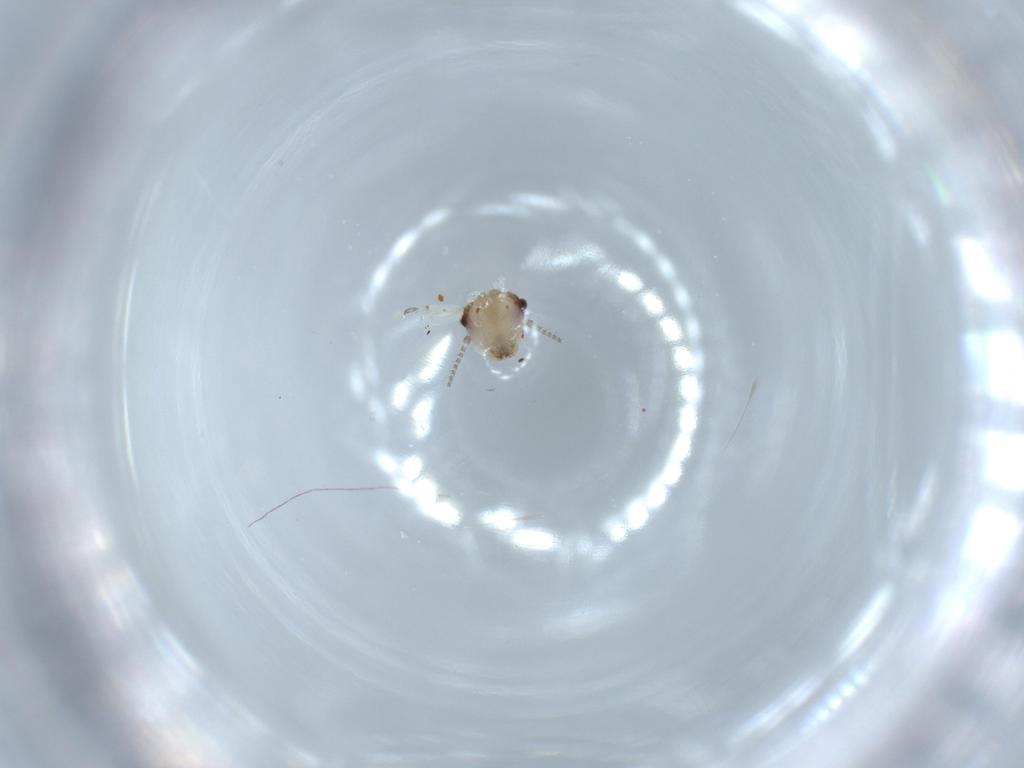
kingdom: Animalia
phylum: Arthropoda
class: Insecta
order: Psocodea
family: Psocidae
